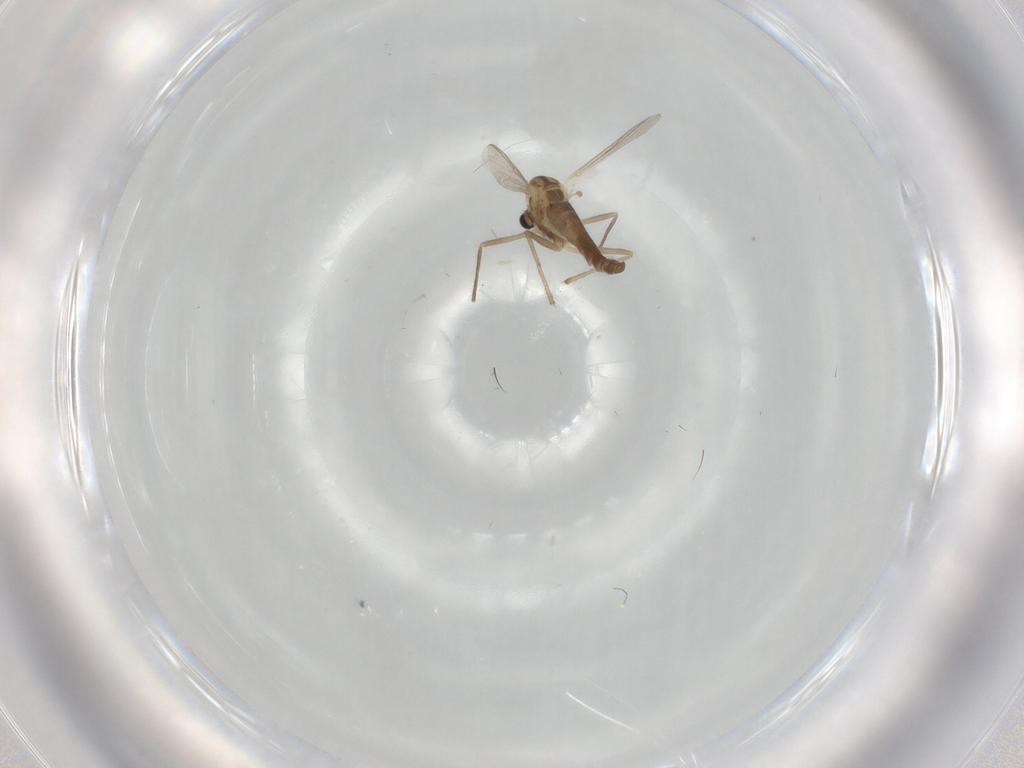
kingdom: Animalia
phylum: Arthropoda
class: Insecta
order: Diptera
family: Chironomidae
